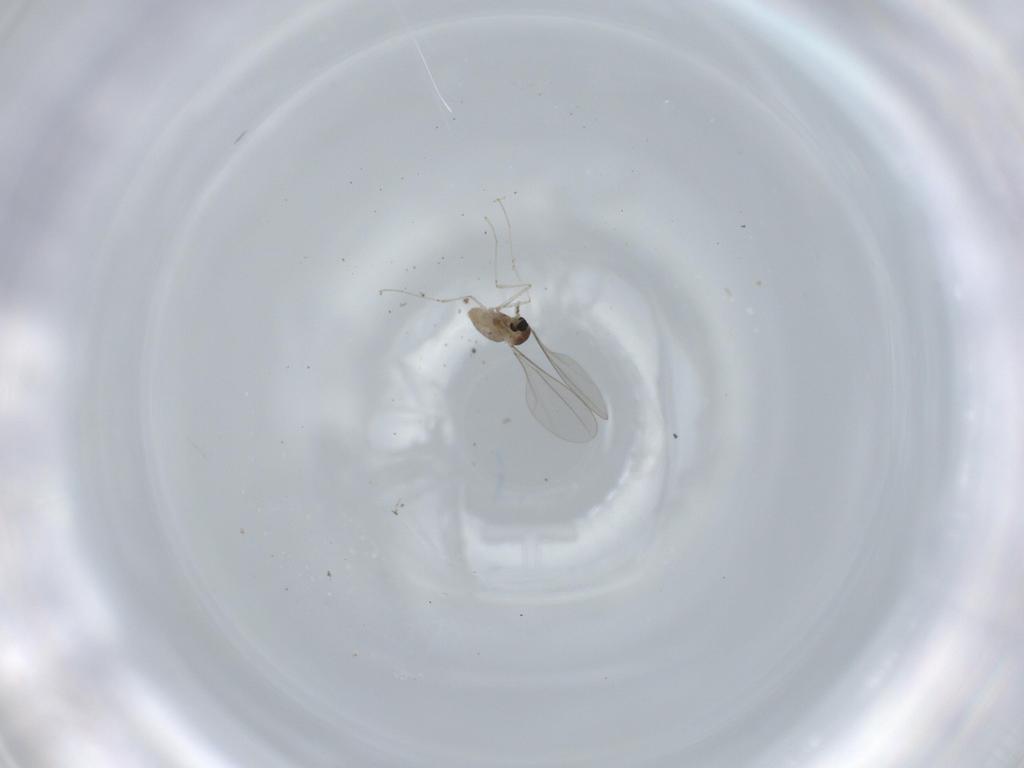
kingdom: Animalia
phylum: Arthropoda
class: Insecta
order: Diptera
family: Cecidomyiidae
